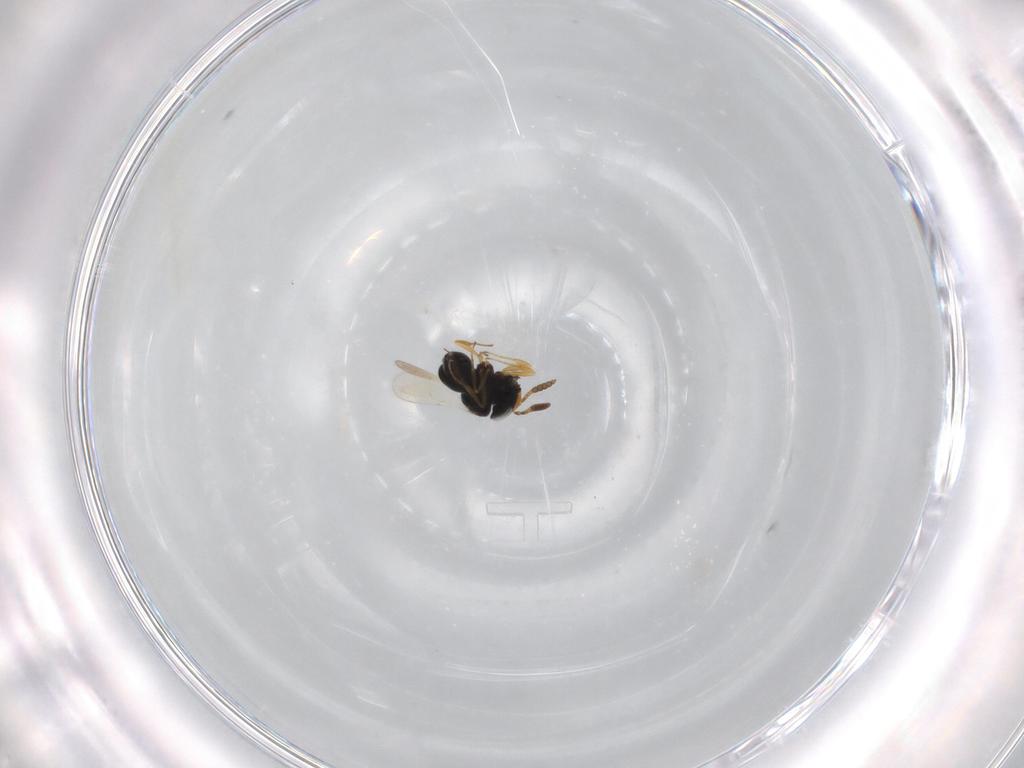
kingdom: Animalia
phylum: Arthropoda
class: Insecta
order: Hymenoptera
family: Scelionidae
